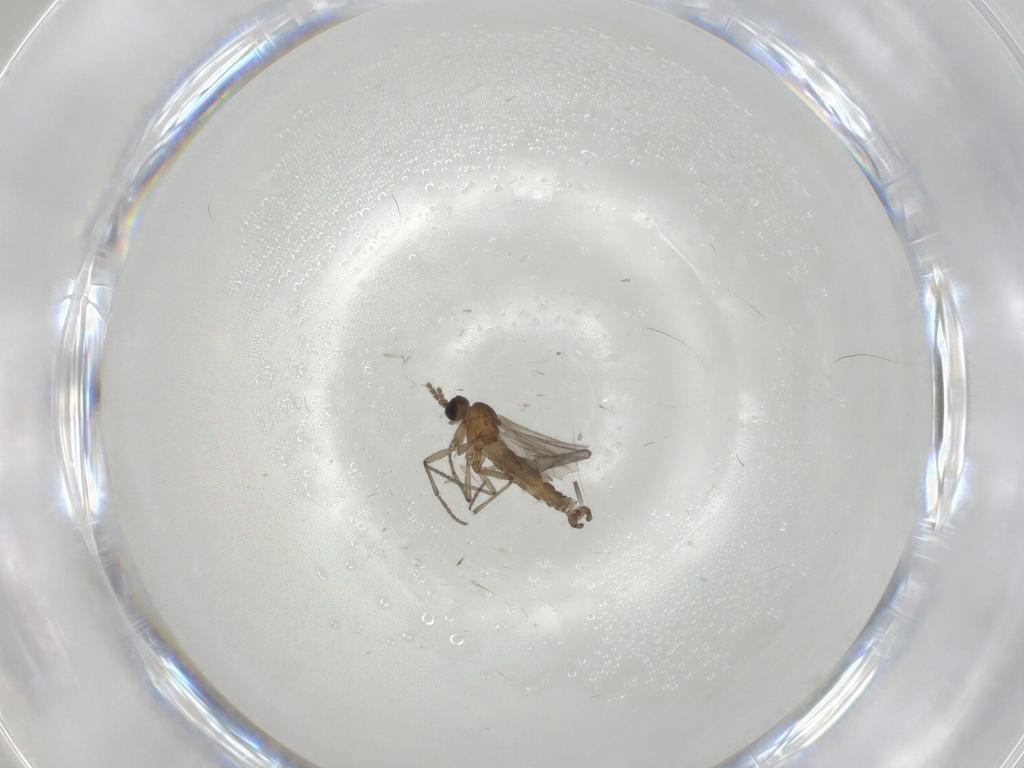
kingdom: Animalia
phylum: Arthropoda
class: Insecta
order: Diptera
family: Sciaridae
